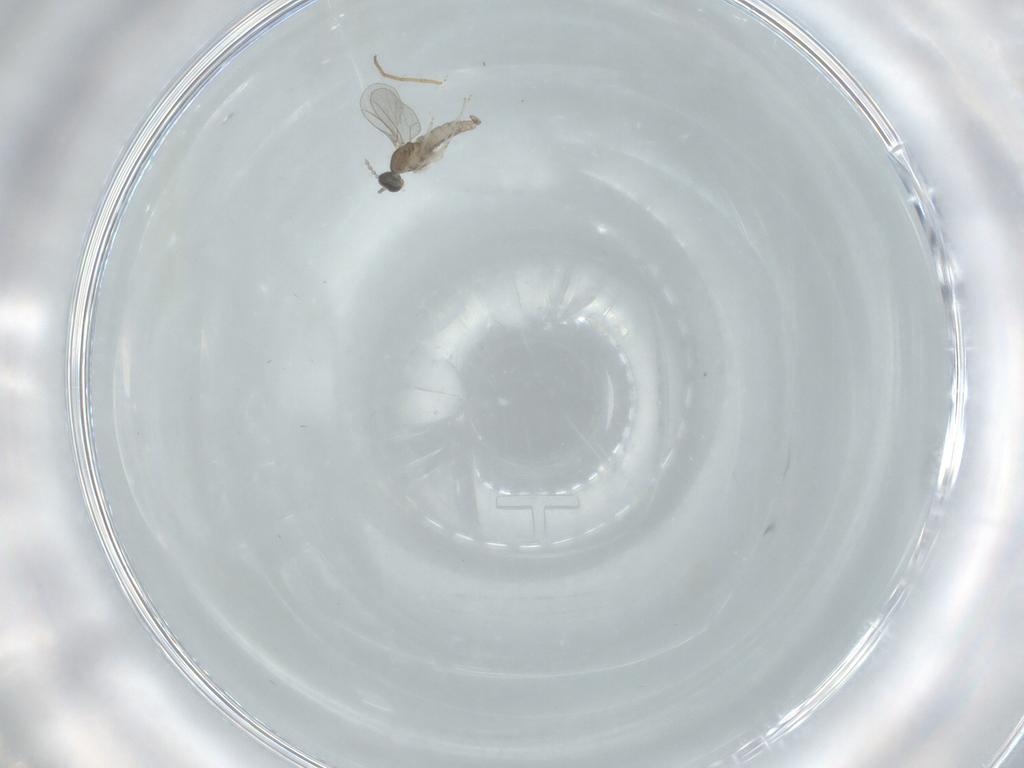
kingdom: Animalia
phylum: Arthropoda
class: Insecta
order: Diptera
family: Cecidomyiidae
